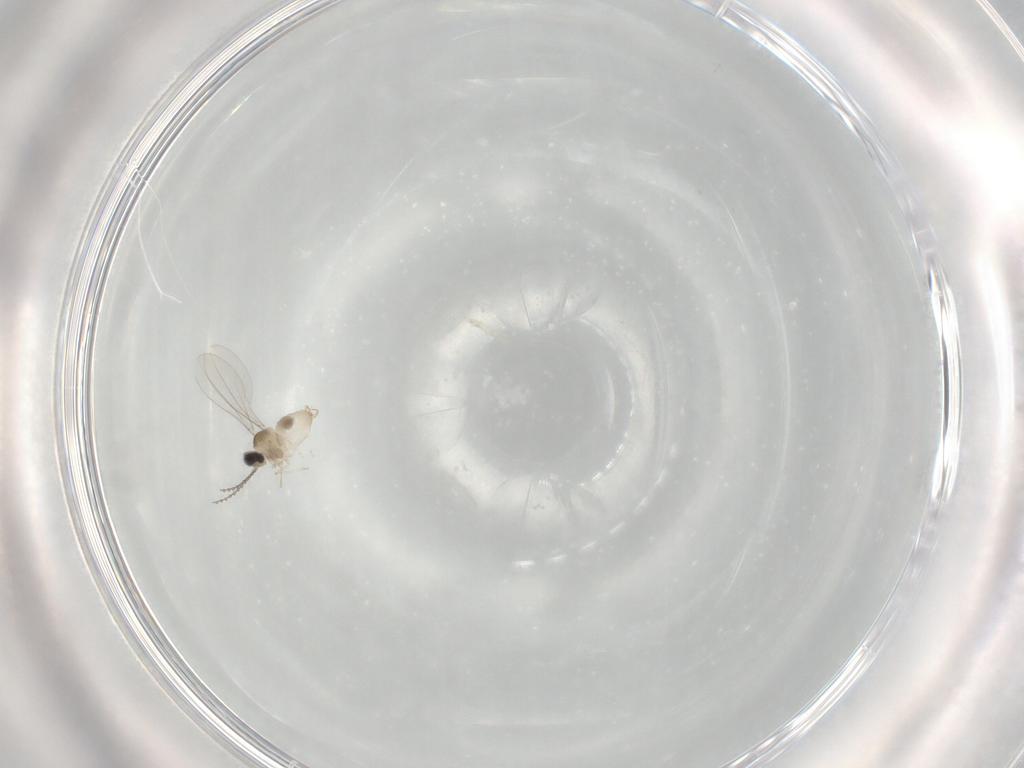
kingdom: Animalia
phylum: Arthropoda
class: Insecta
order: Diptera
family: Cecidomyiidae
